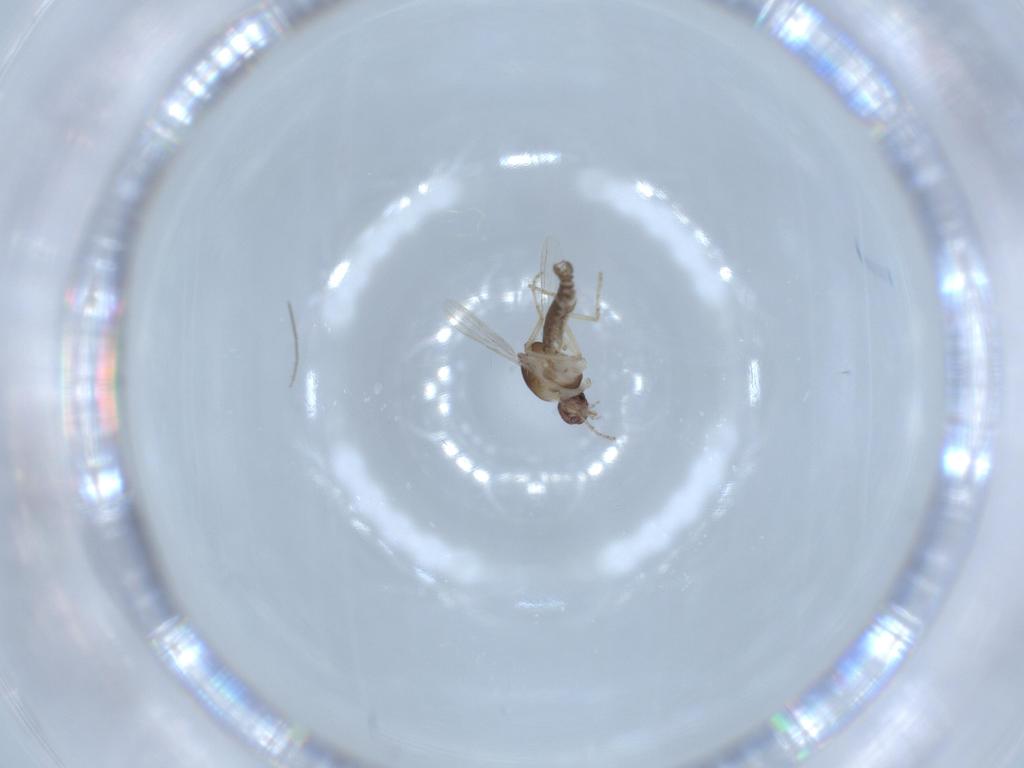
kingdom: Animalia
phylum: Arthropoda
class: Insecta
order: Diptera
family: Ceratopogonidae
